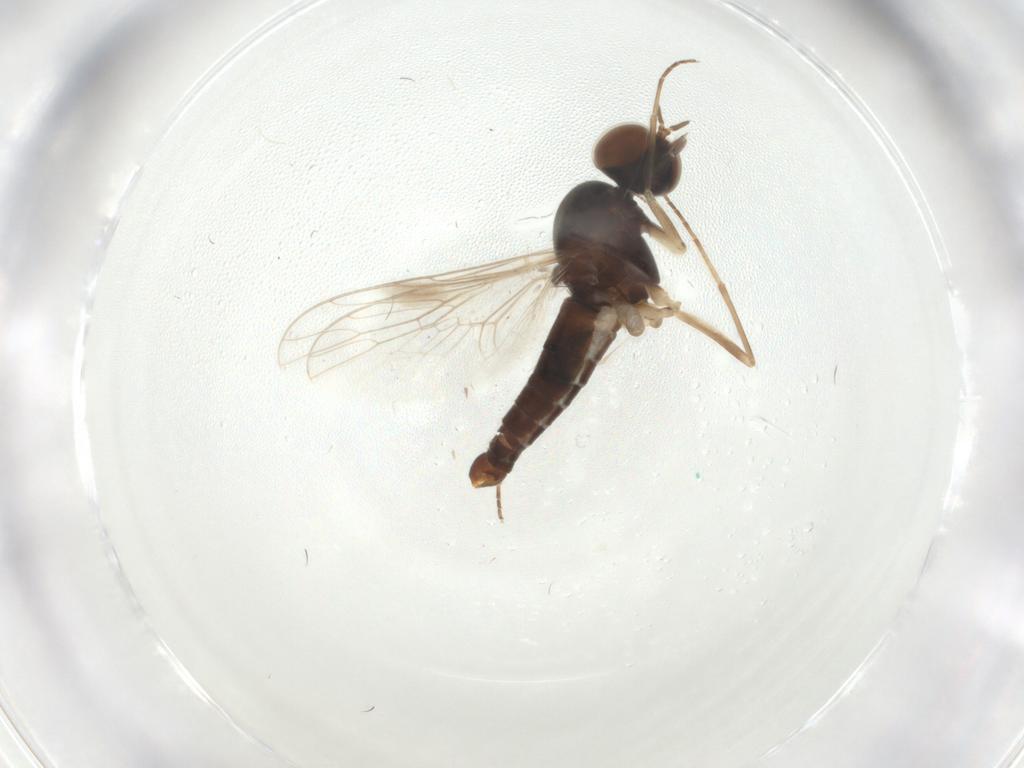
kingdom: Animalia
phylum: Arthropoda
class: Insecta
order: Diptera
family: Scenopinidae
